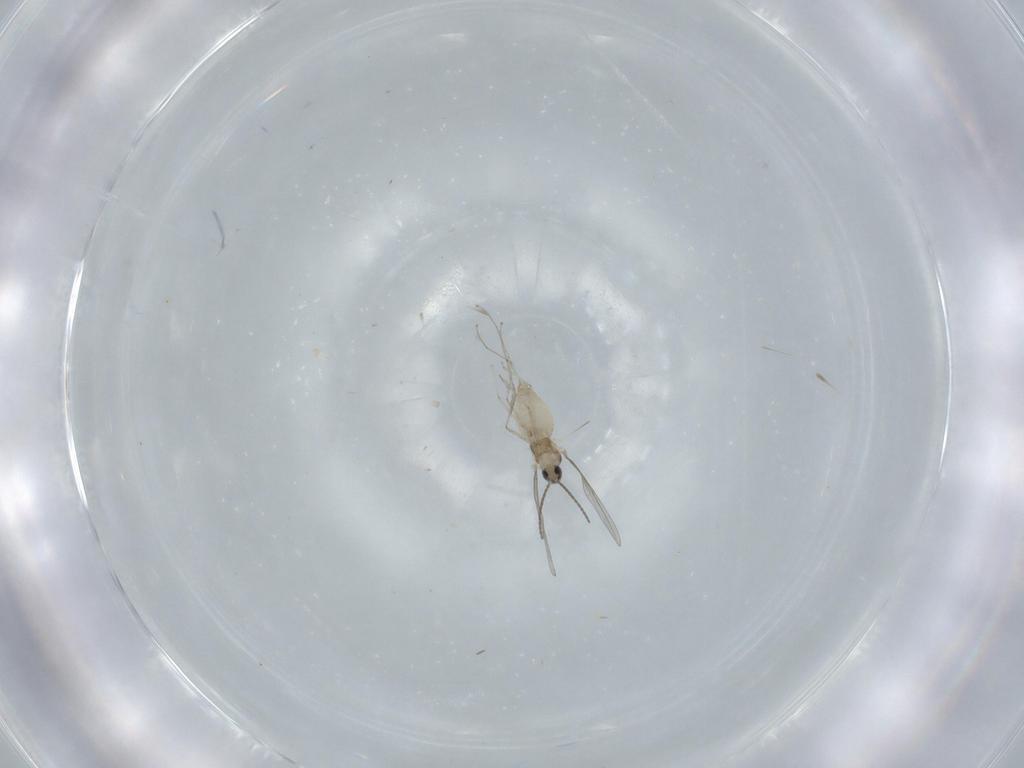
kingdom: Animalia
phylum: Arthropoda
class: Insecta
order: Diptera
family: Cecidomyiidae
